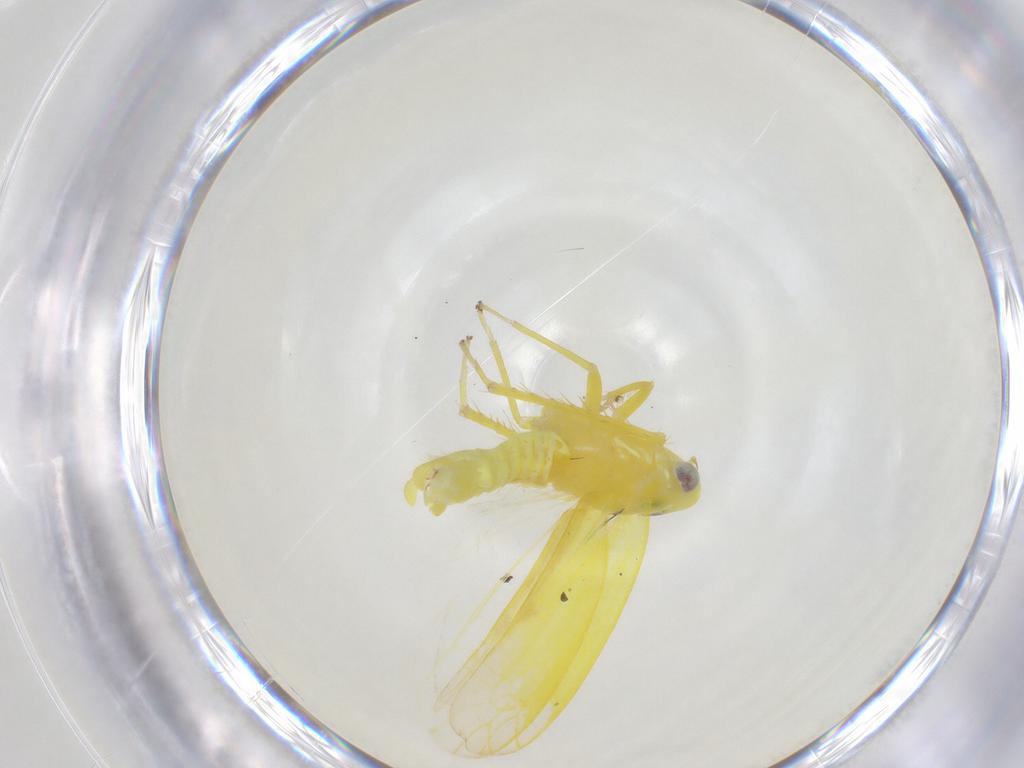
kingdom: Animalia
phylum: Arthropoda
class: Insecta
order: Hemiptera
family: Cicadellidae
